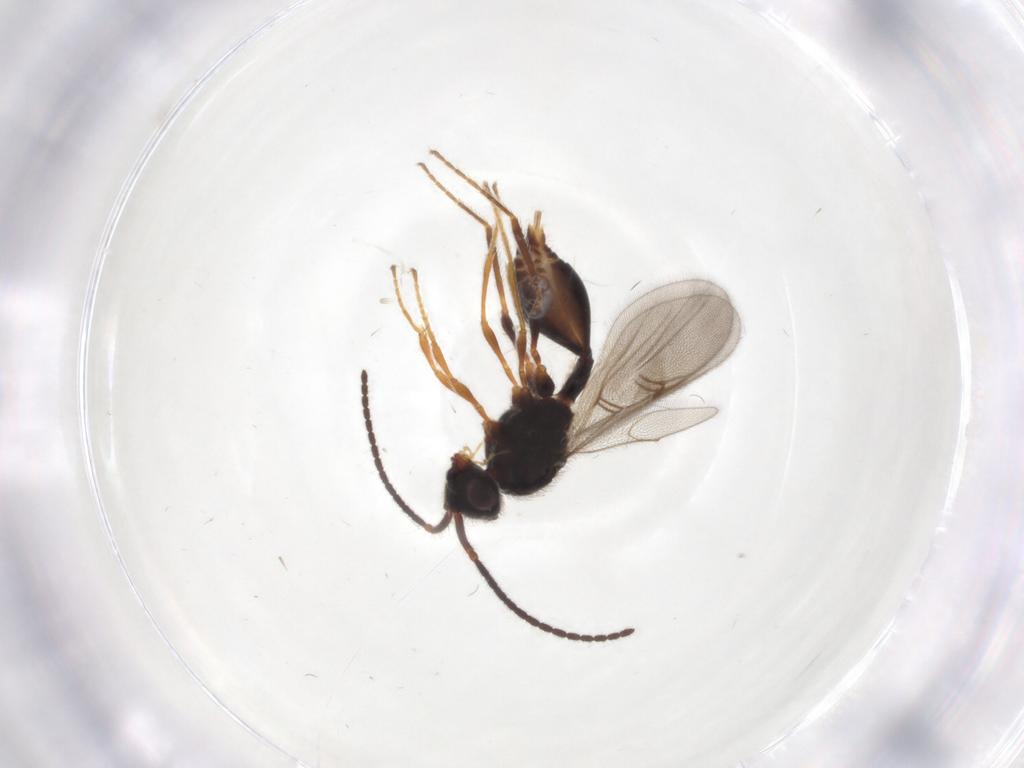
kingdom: Animalia
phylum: Arthropoda
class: Insecta
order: Hymenoptera
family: Diapriidae
